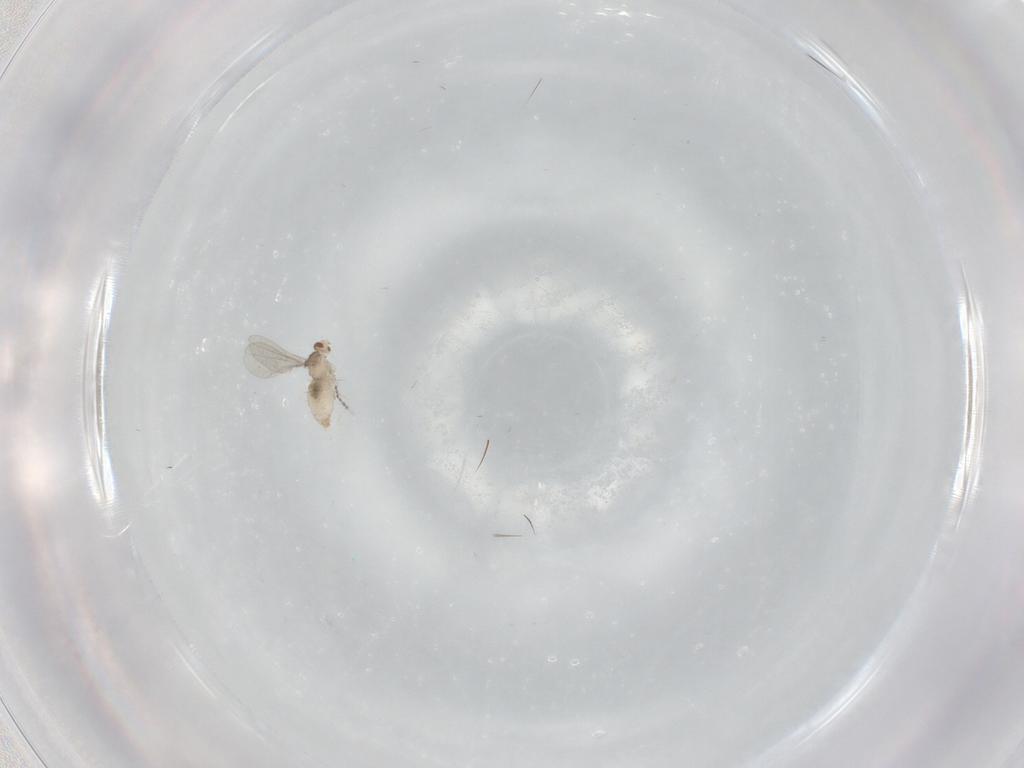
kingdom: Animalia
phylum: Arthropoda
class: Insecta
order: Diptera
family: Cecidomyiidae
